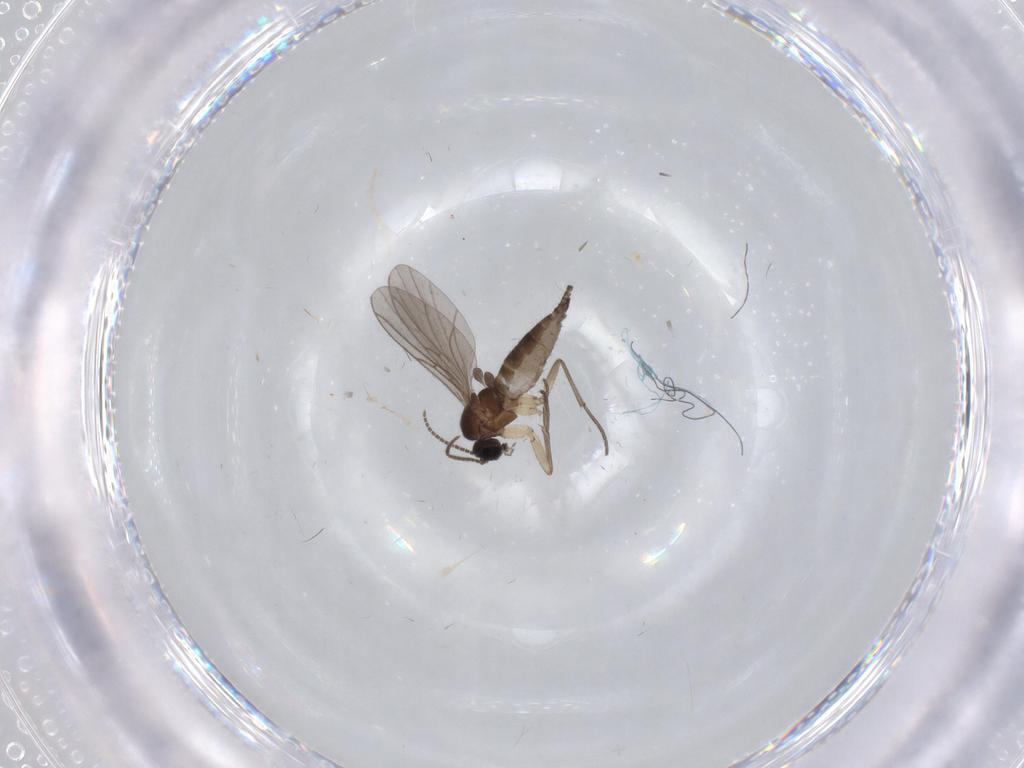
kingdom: Animalia
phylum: Arthropoda
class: Insecta
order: Diptera
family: Sciaridae
